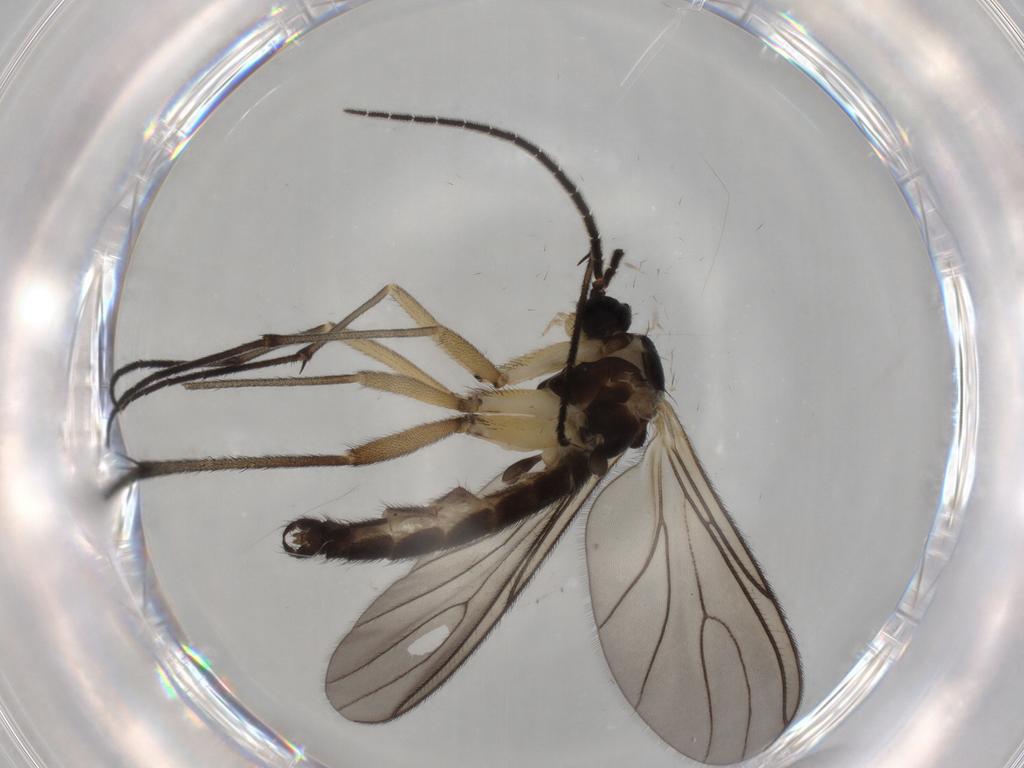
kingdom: Animalia
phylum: Arthropoda
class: Insecta
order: Diptera
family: Sciaridae
